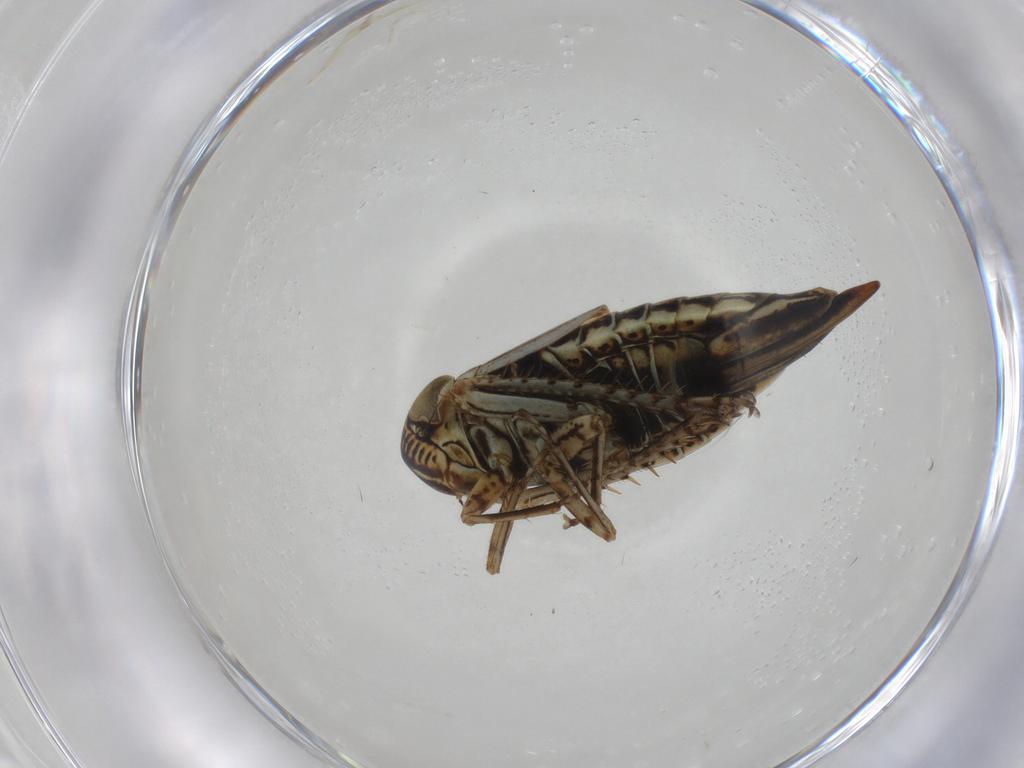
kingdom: Animalia
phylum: Arthropoda
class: Insecta
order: Hemiptera
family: Cicadellidae
